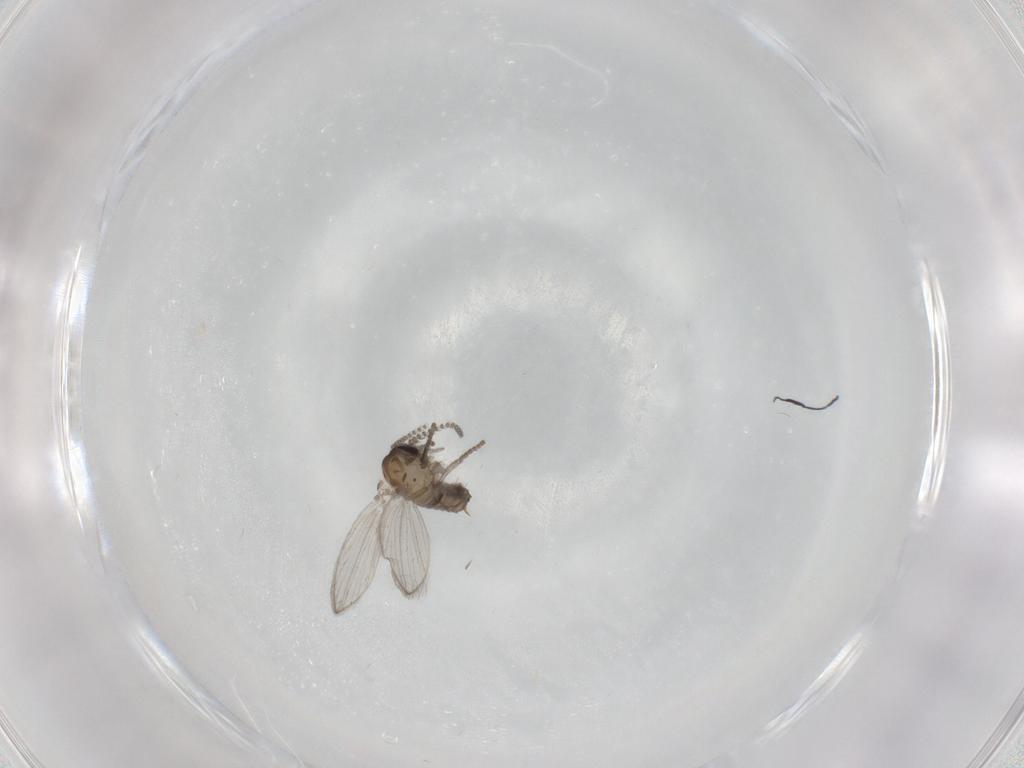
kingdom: Animalia
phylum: Arthropoda
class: Insecta
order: Diptera
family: Psychodidae
